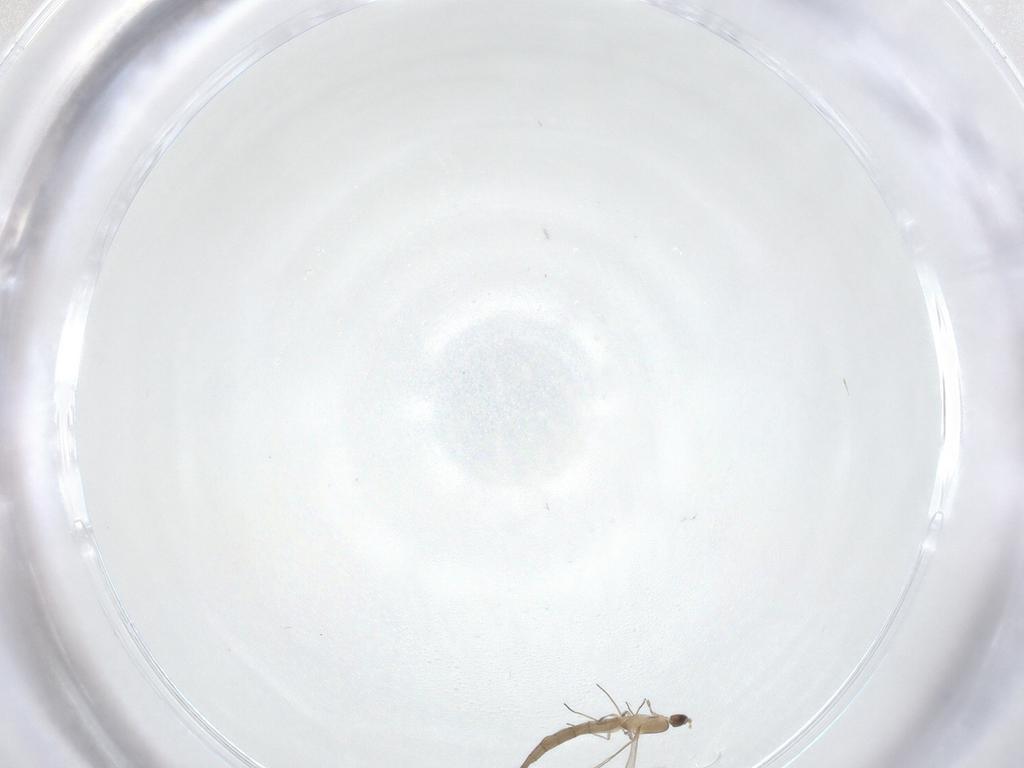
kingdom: Animalia
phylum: Arthropoda
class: Insecta
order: Diptera
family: Cecidomyiidae
